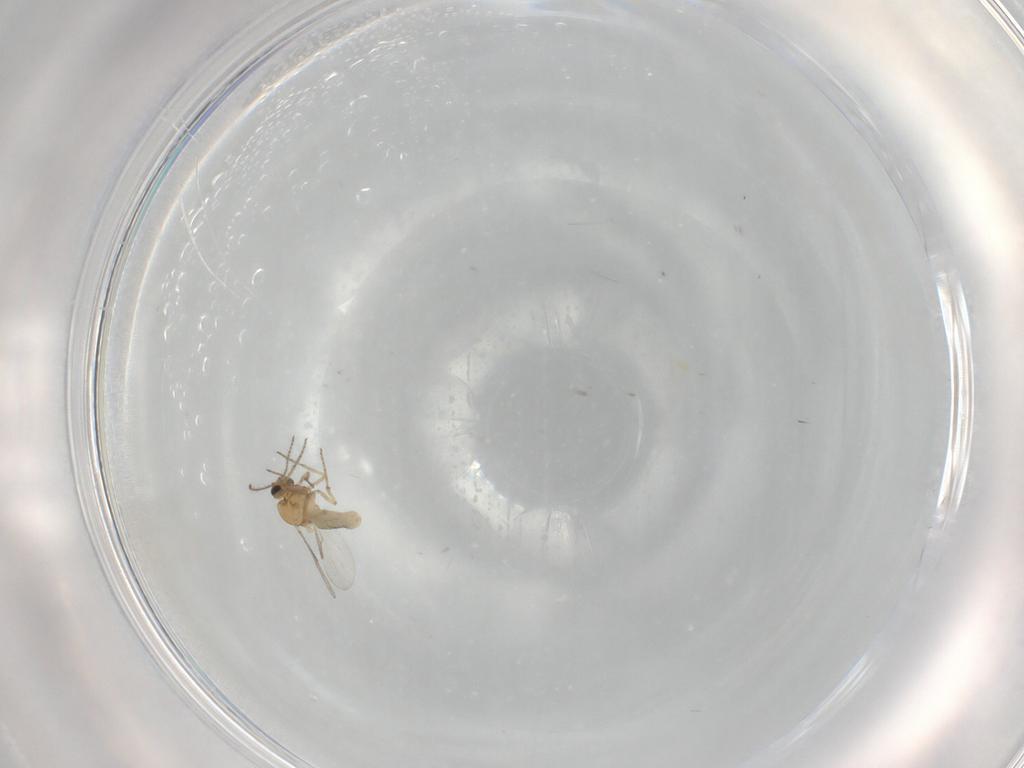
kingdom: Animalia
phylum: Arthropoda
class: Insecta
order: Diptera
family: Ceratopogonidae
